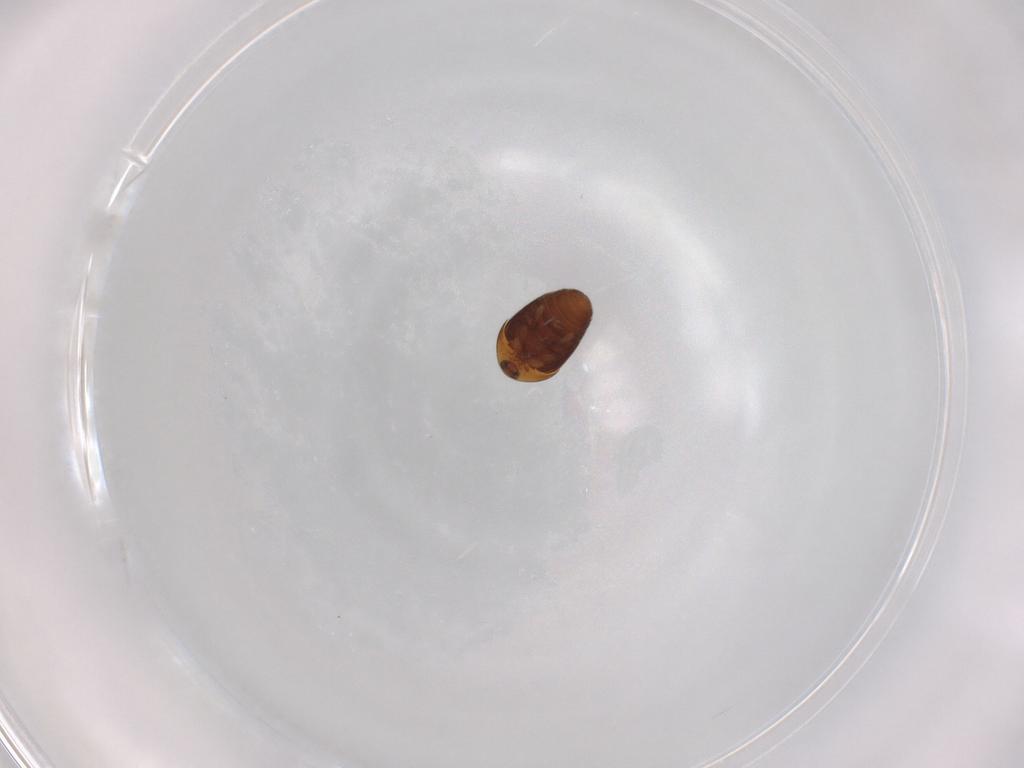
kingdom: Animalia
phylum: Arthropoda
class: Insecta
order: Coleoptera
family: Corylophidae
